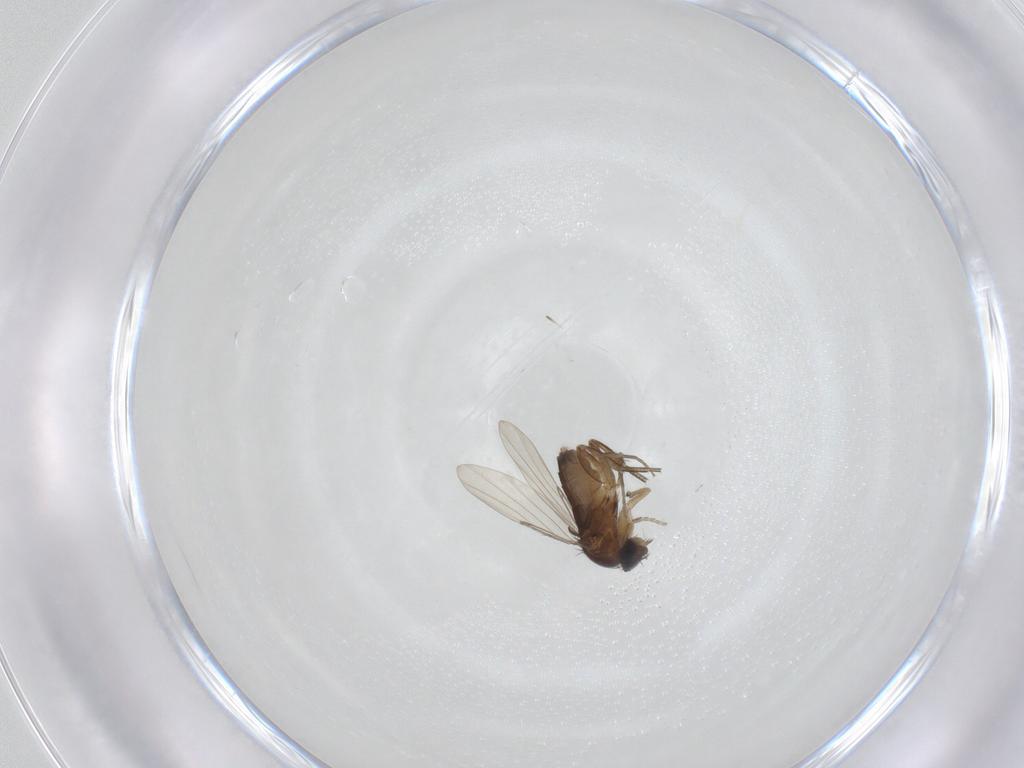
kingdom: Animalia
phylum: Arthropoda
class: Insecta
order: Diptera
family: Phoridae
